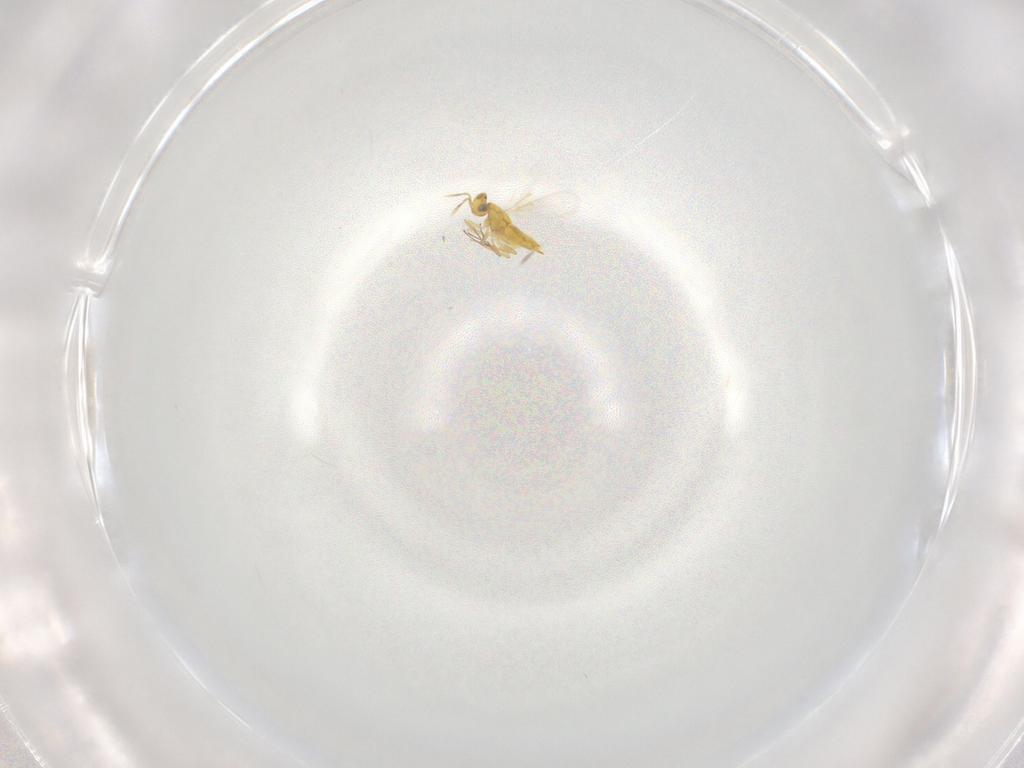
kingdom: Animalia
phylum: Arthropoda
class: Insecta
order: Hymenoptera
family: Aphelinidae
